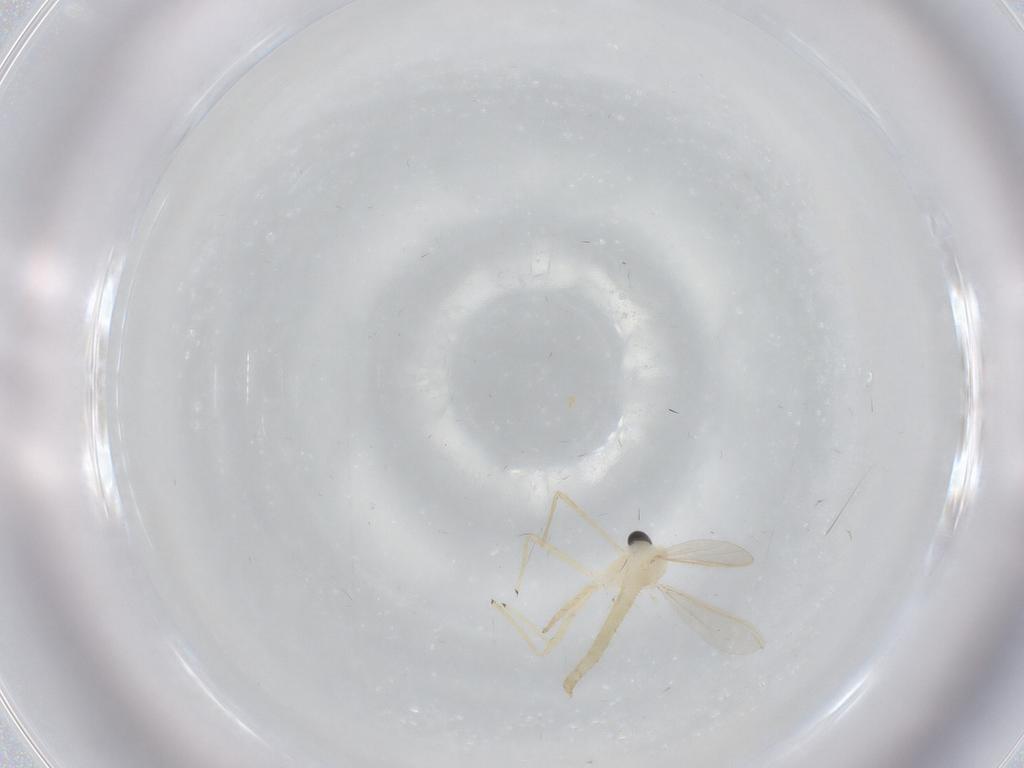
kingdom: Animalia
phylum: Arthropoda
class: Insecta
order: Diptera
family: Chironomidae
